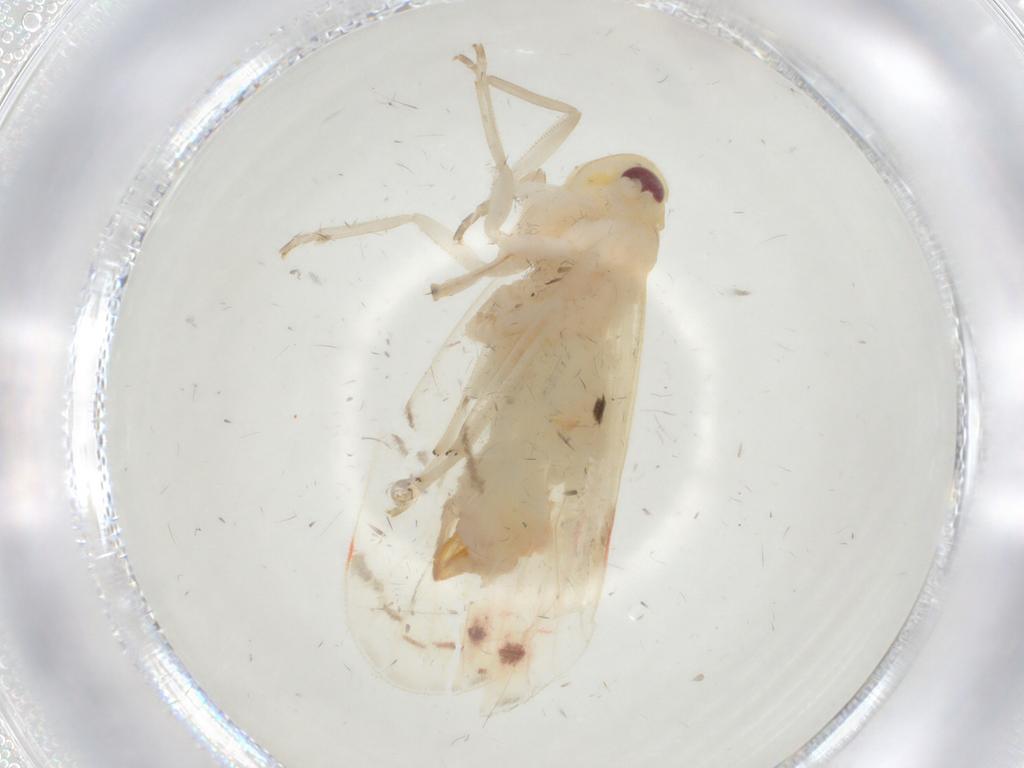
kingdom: Animalia
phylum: Arthropoda
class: Insecta
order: Hemiptera
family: Derbidae
